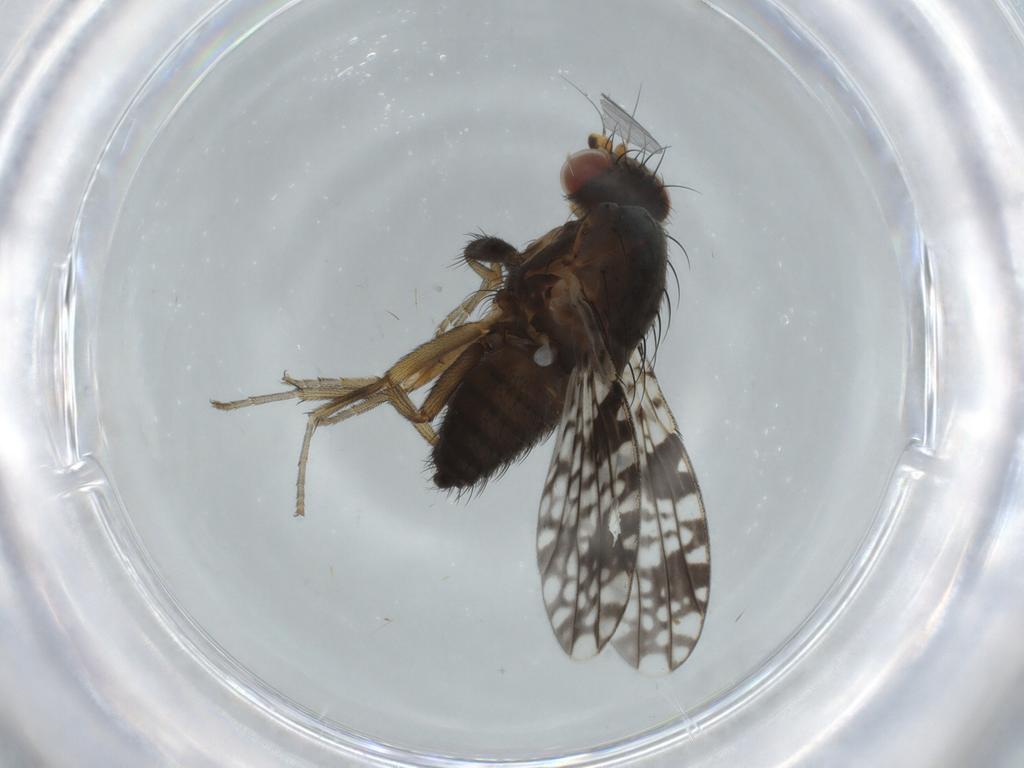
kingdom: Animalia
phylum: Arthropoda
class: Insecta
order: Diptera
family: Tephritidae
